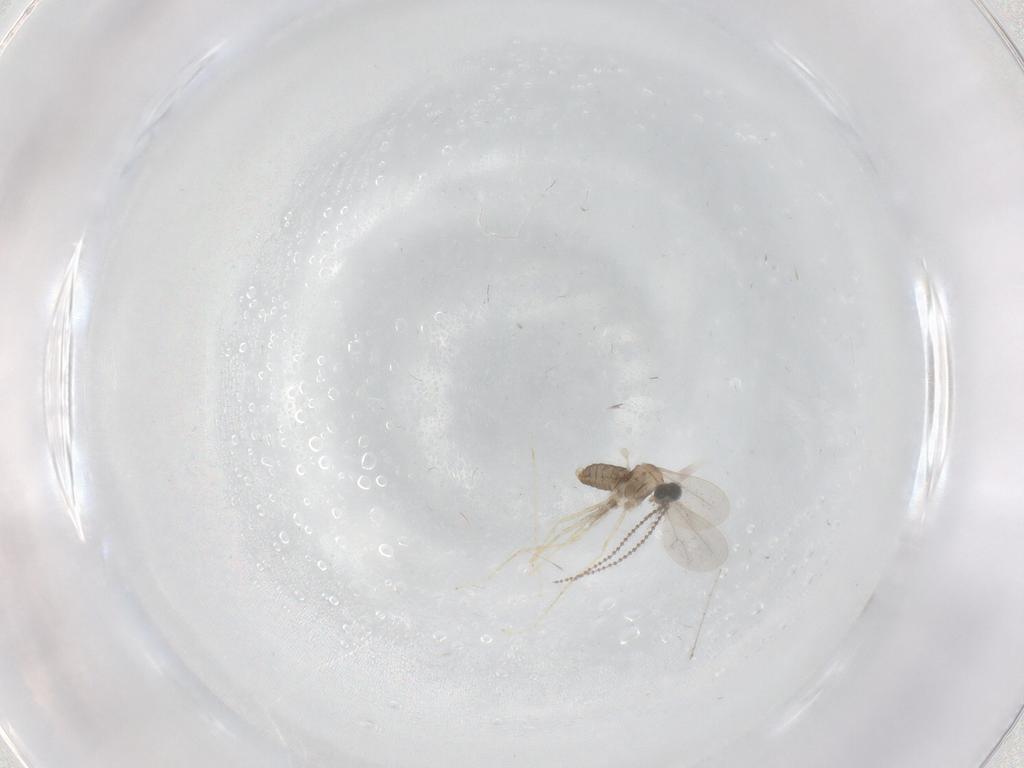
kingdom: Animalia
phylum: Arthropoda
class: Insecta
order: Diptera
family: Cecidomyiidae
